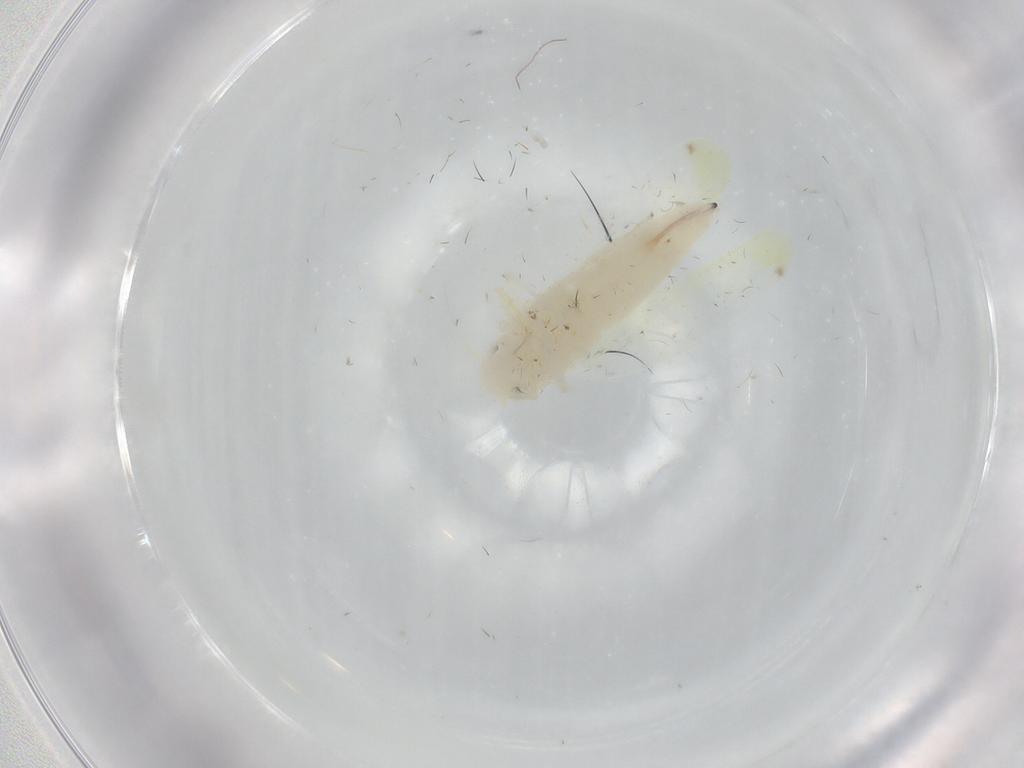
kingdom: Animalia
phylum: Arthropoda
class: Insecta
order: Hemiptera
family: Cicadellidae
